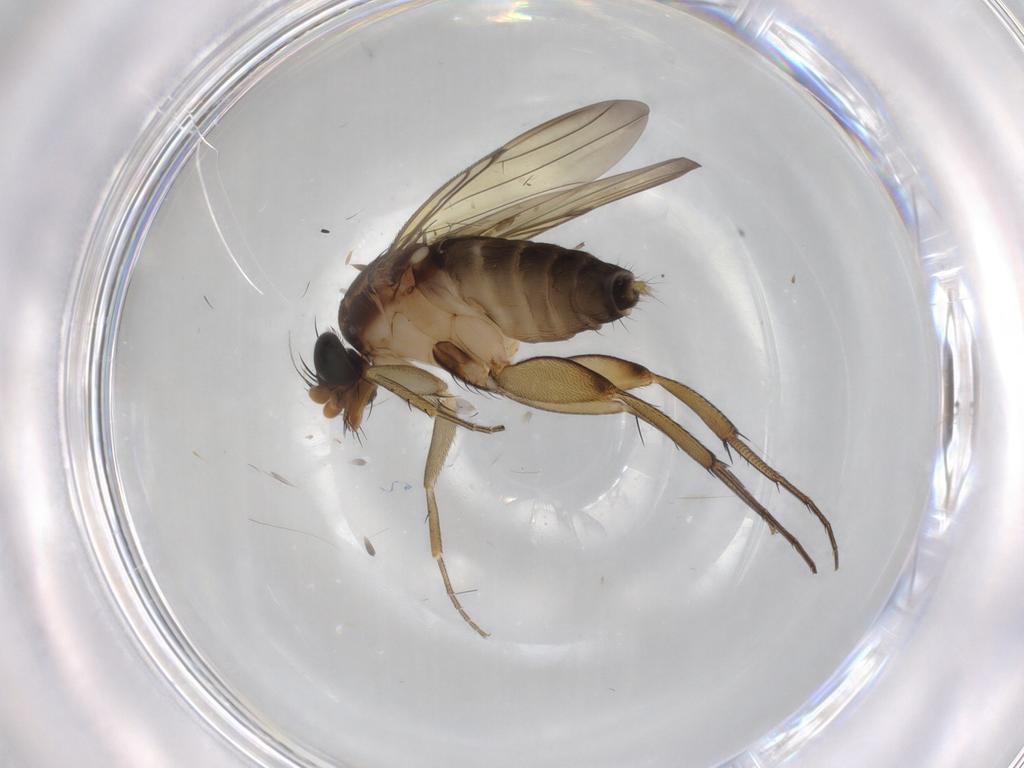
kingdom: Animalia
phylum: Arthropoda
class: Insecta
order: Diptera
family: Phoridae
